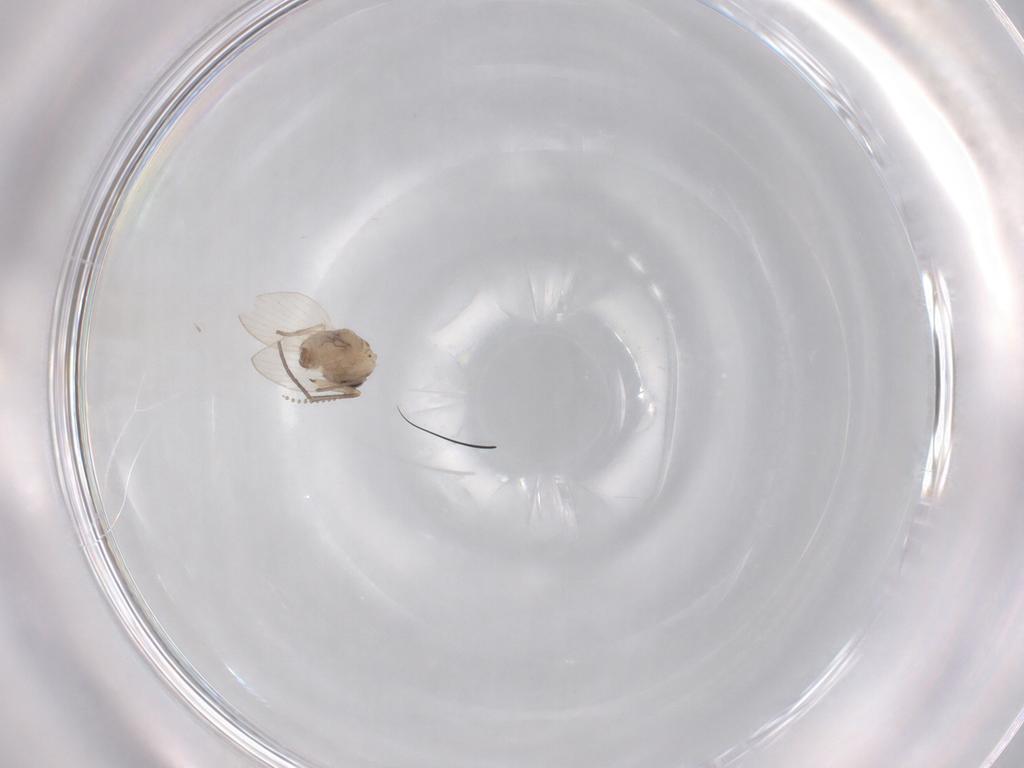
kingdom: Animalia
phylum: Arthropoda
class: Insecta
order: Diptera
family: Psychodidae
